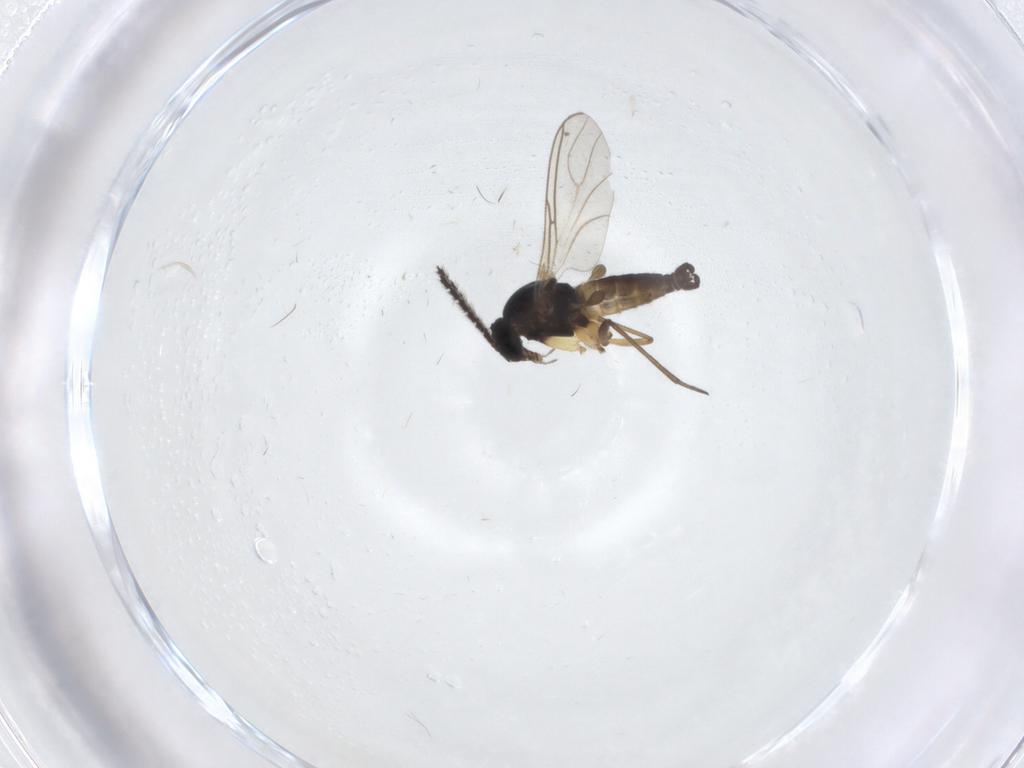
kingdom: Animalia
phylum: Arthropoda
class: Insecta
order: Diptera
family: Sciaridae
